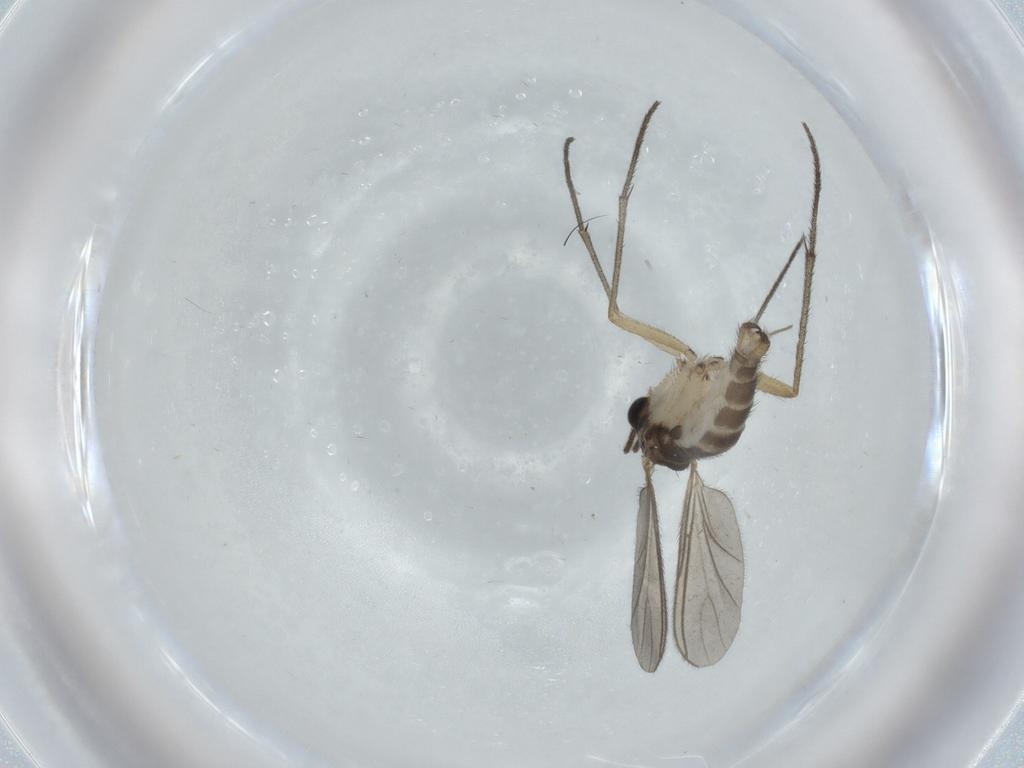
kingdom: Animalia
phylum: Arthropoda
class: Insecta
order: Diptera
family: Sciaridae
